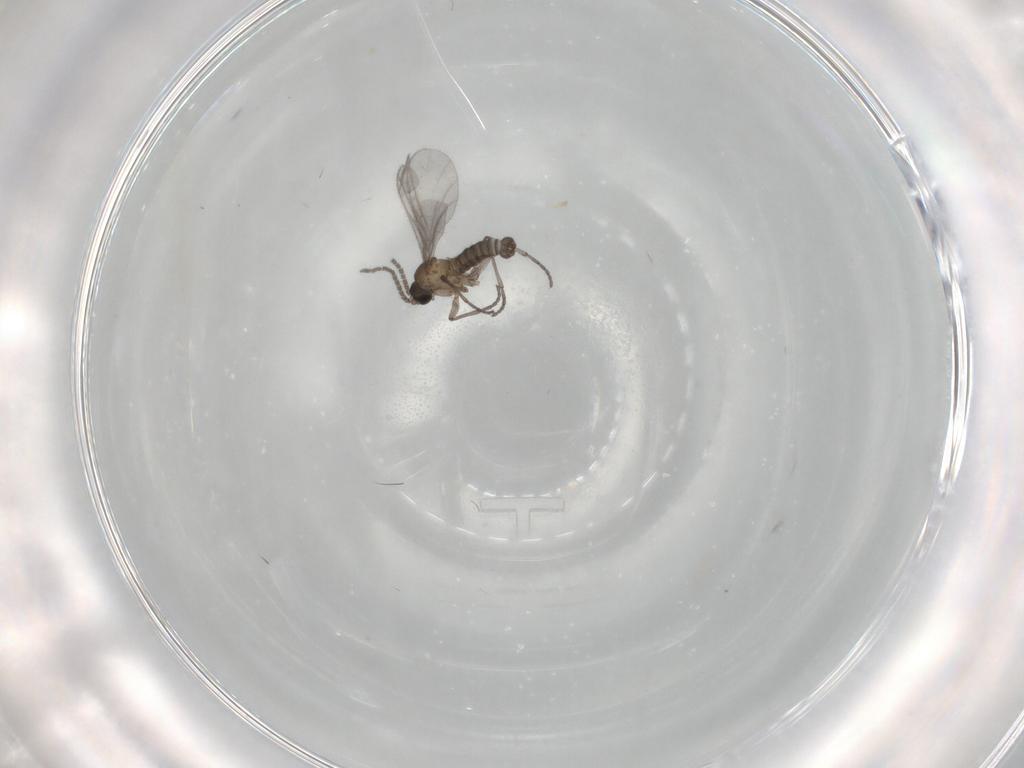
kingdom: Animalia
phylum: Arthropoda
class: Insecta
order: Diptera
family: Sciaridae
